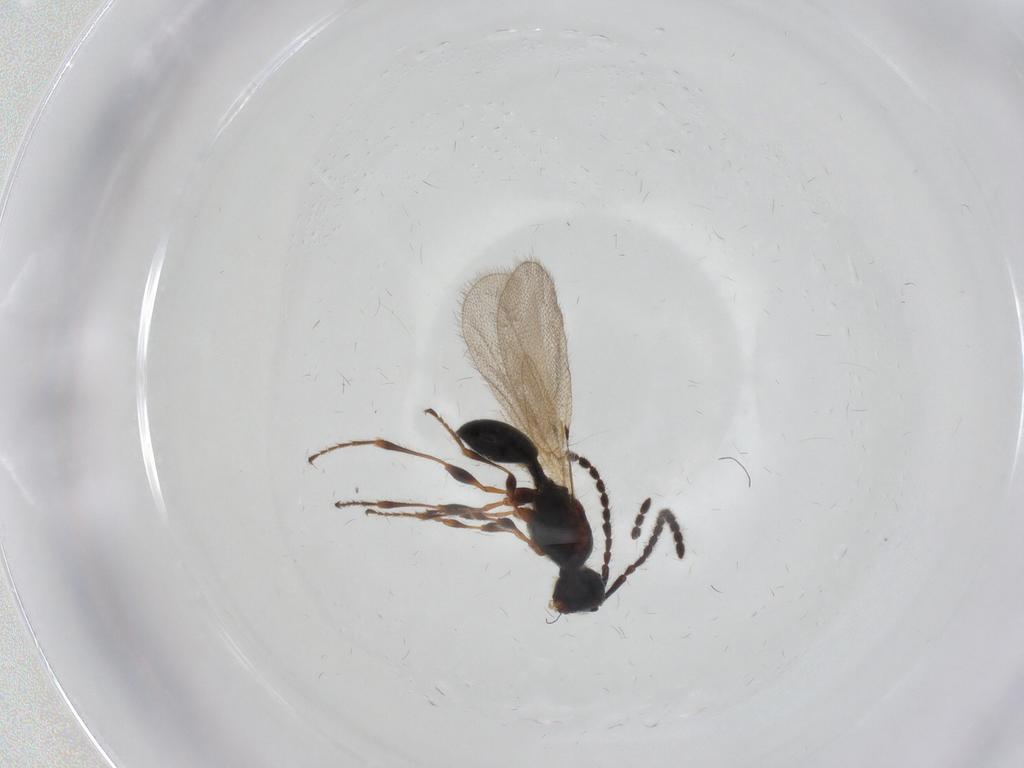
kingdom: Animalia
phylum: Arthropoda
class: Insecta
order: Hymenoptera
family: Diapriidae
